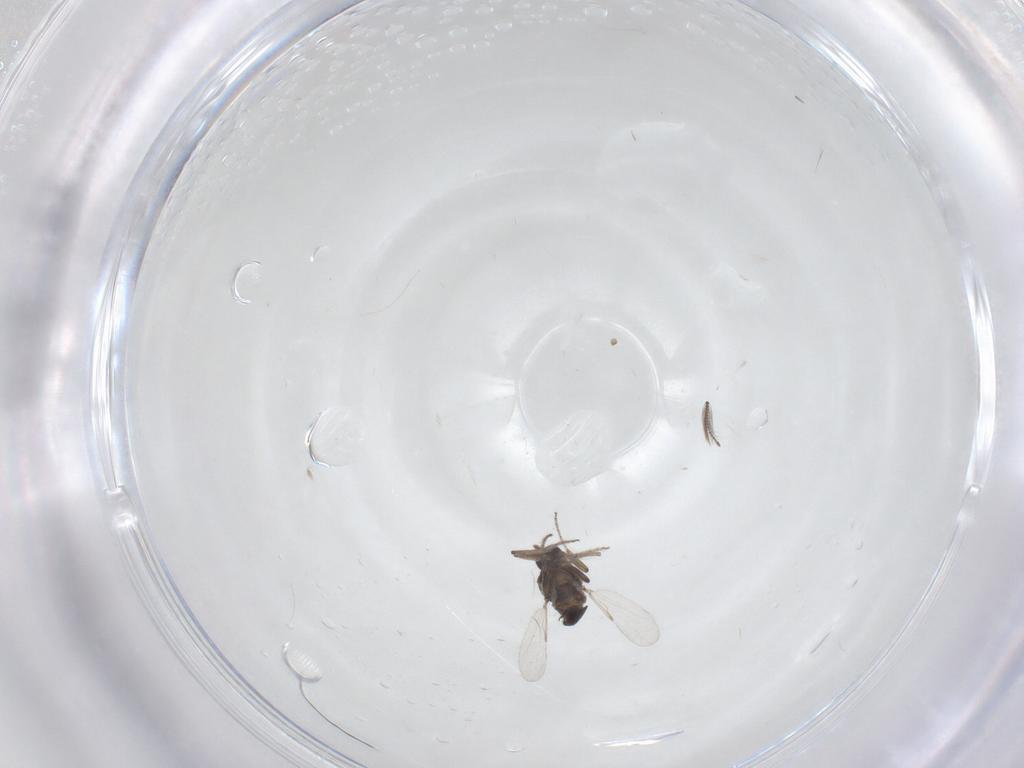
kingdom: Animalia
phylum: Arthropoda
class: Insecta
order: Diptera
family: Ceratopogonidae
